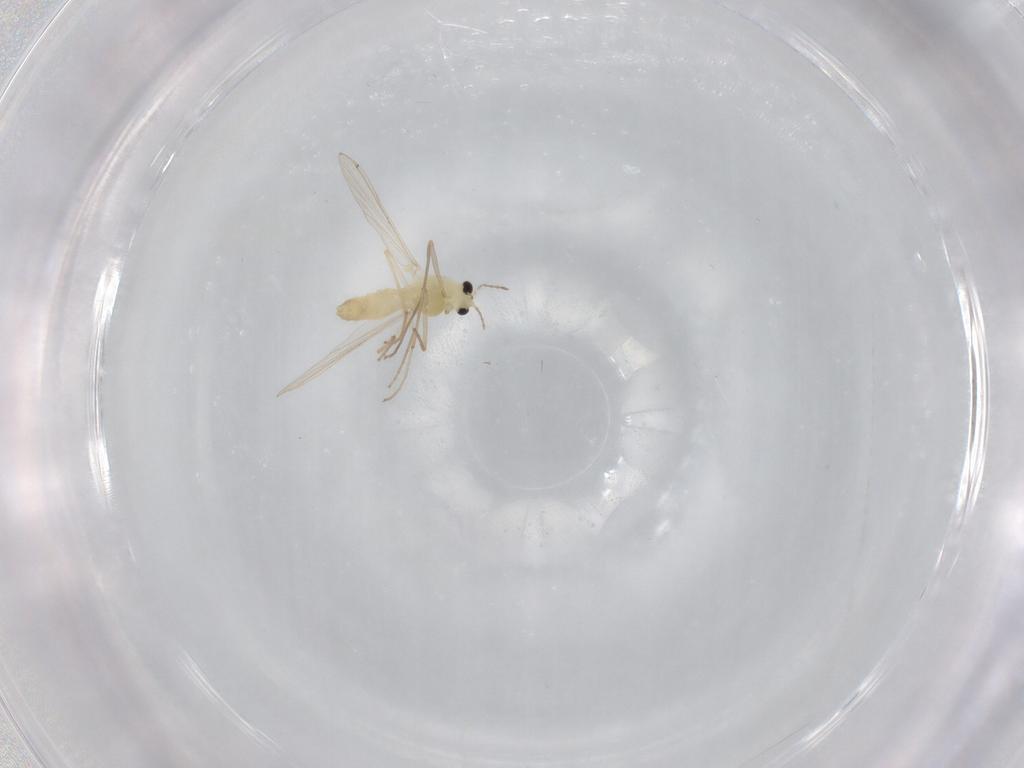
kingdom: Animalia
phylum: Arthropoda
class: Insecta
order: Diptera
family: Chironomidae
